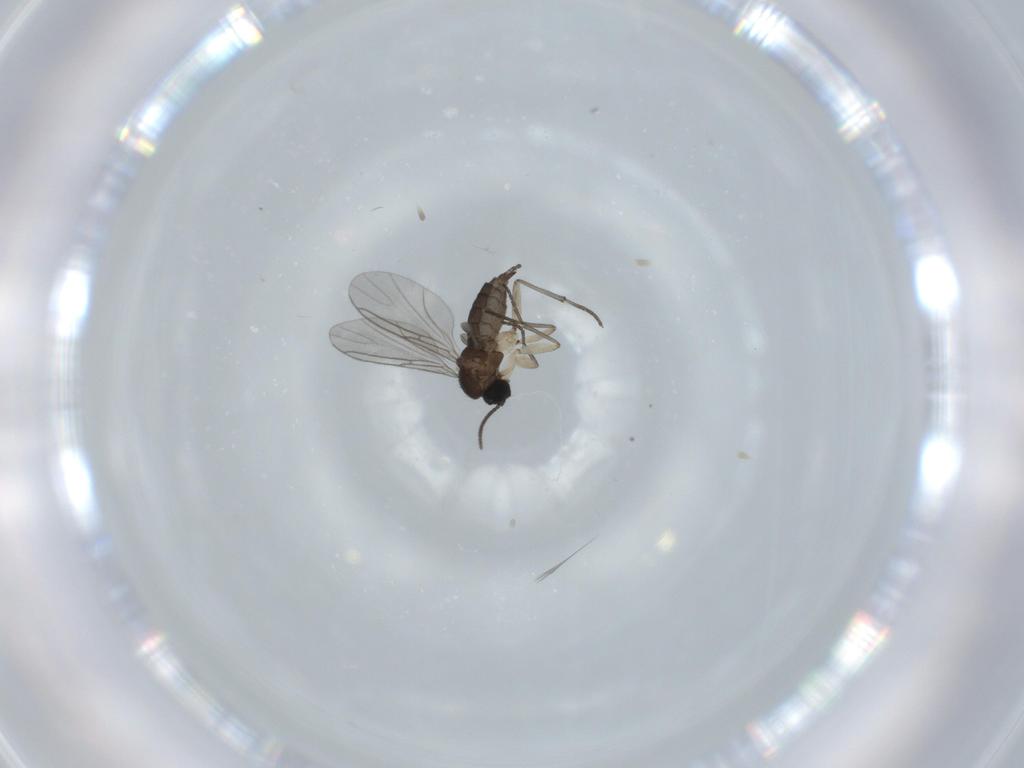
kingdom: Animalia
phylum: Arthropoda
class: Insecta
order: Diptera
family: Sciaridae
